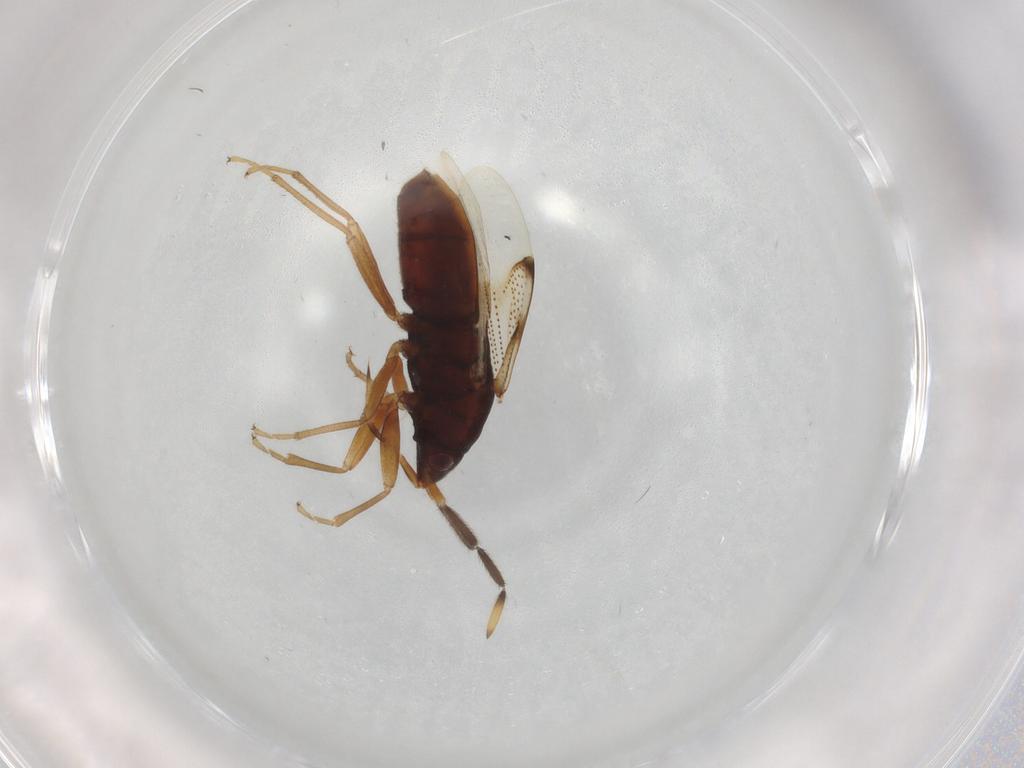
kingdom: Animalia
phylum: Arthropoda
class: Insecta
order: Hemiptera
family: Rhyparochromidae
